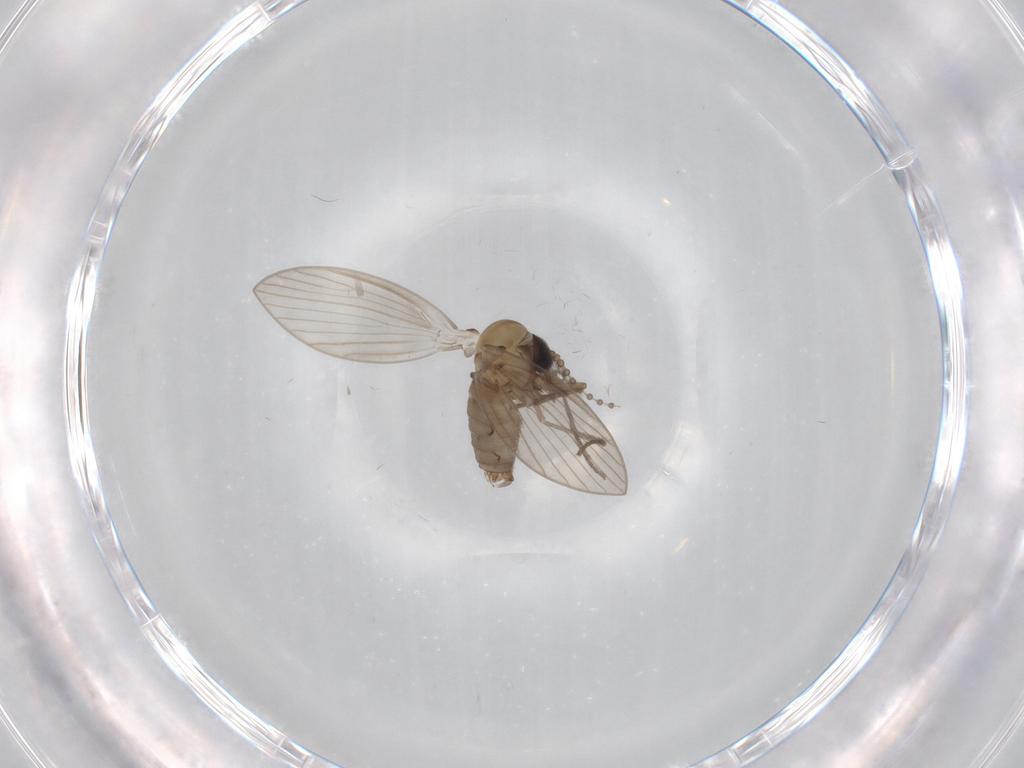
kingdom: Animalia
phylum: Arthropoda
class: Insecta
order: Diptera
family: Chironomidae
